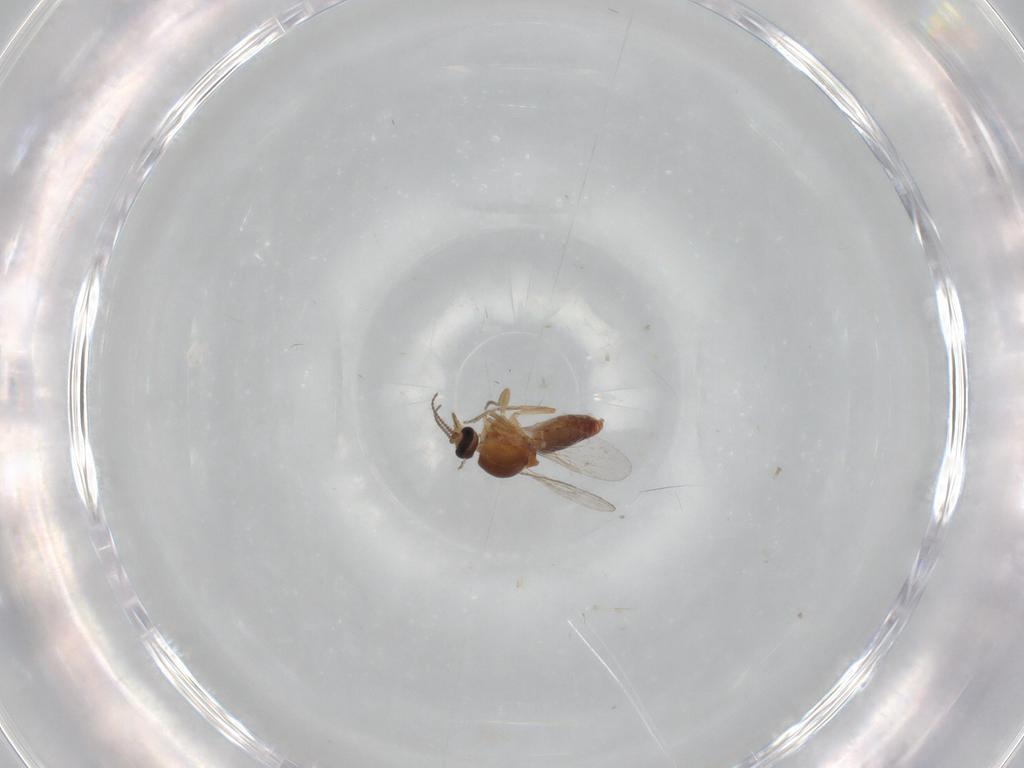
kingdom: Animalia
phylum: Arthropoda
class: Insecta
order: Diptera
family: Ceratopogonidae
